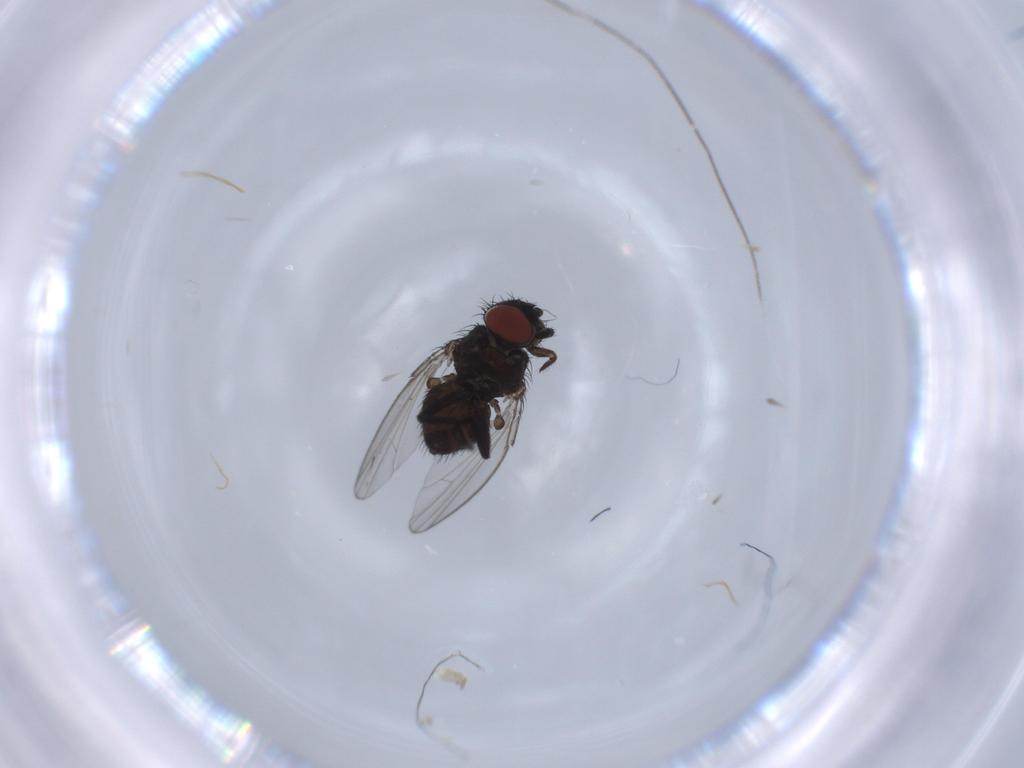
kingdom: Animalia
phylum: Arthropoda
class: Insecta
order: Diptera
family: Milichiidae
